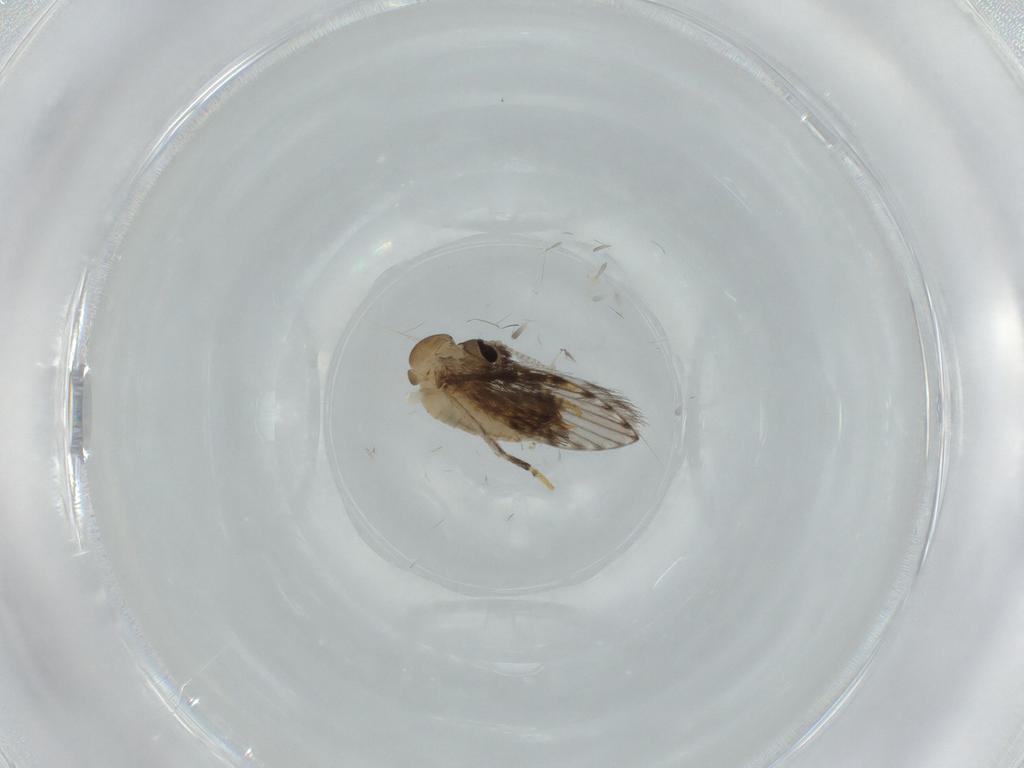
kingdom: Animalia
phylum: Arthropoda
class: Insecta
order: Diptera
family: Psychodidae
